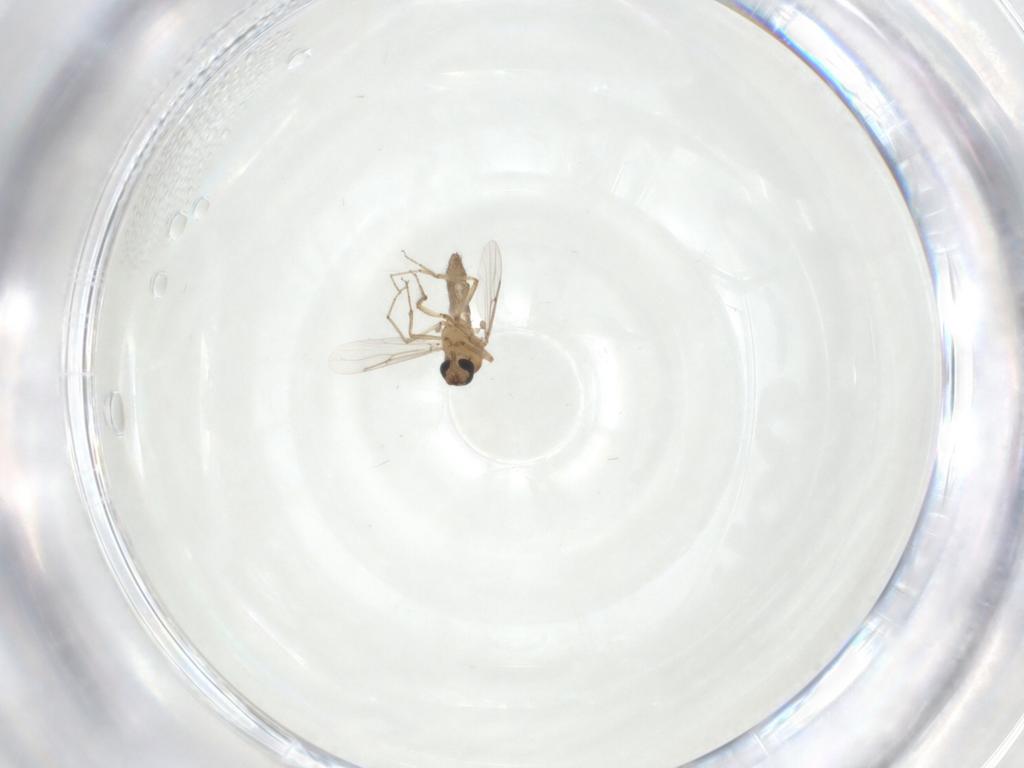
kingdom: Animalia
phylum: Arthropoda
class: Insecta
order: Diptera
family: Ceratopogonidae
